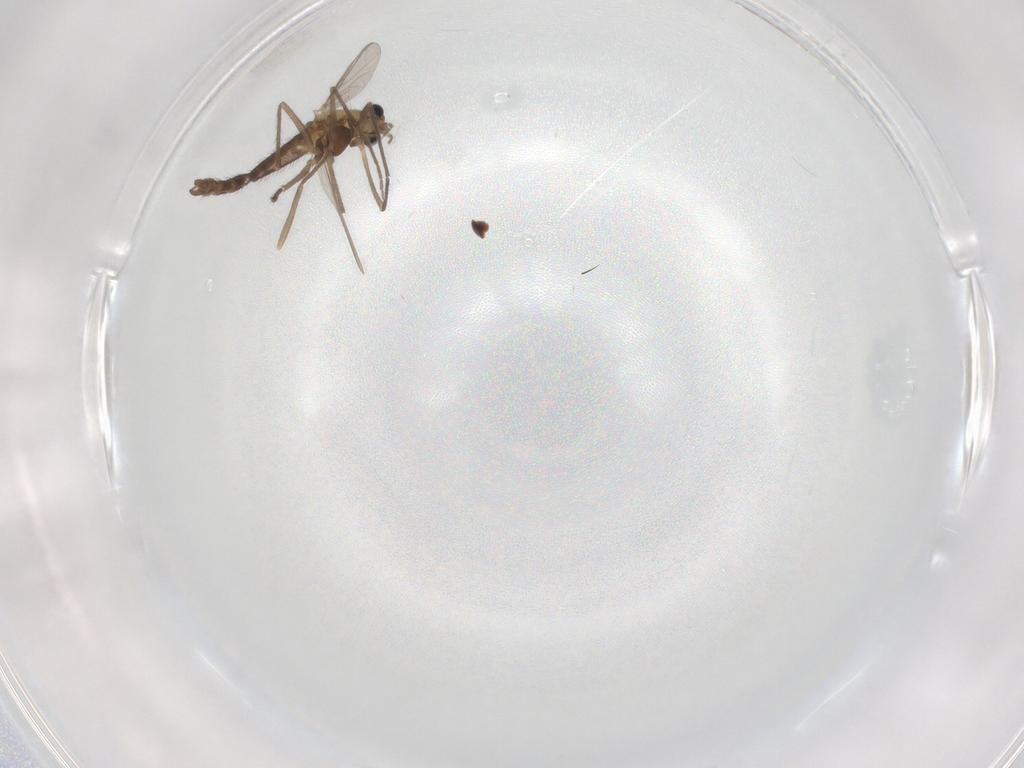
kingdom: Animalia
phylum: Arthropoda
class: Insecta
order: Diptera
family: Chironomidae
